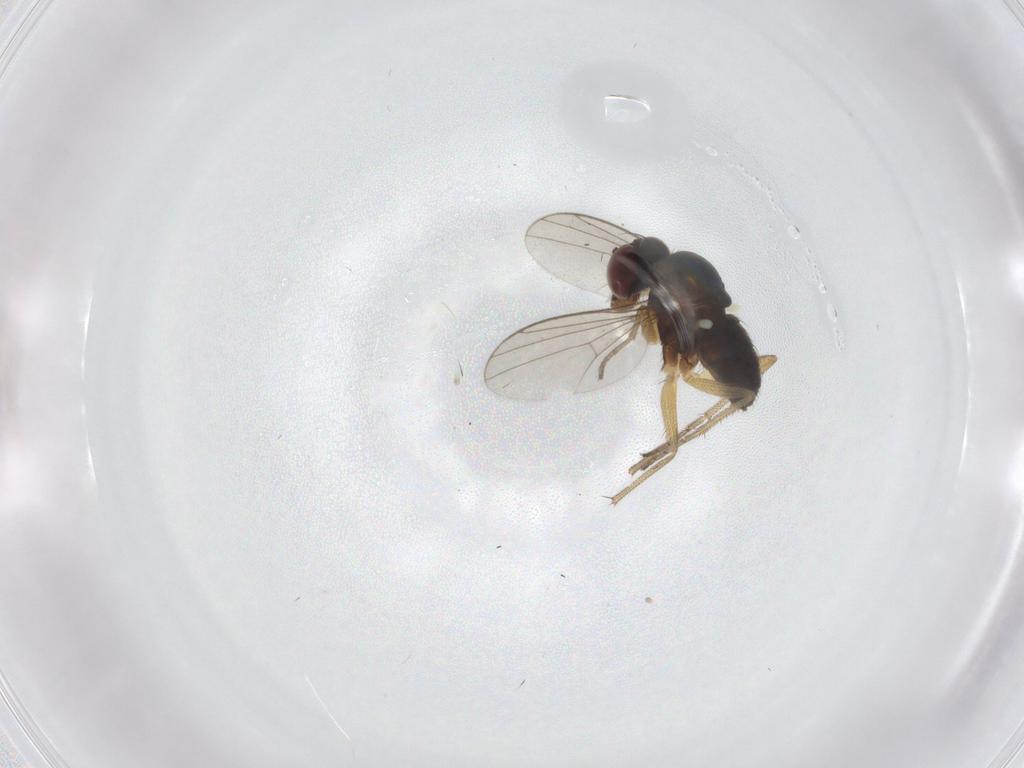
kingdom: Animalia
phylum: Arthropoda
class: Insecta
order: Diptera
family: Dolichopodidae
